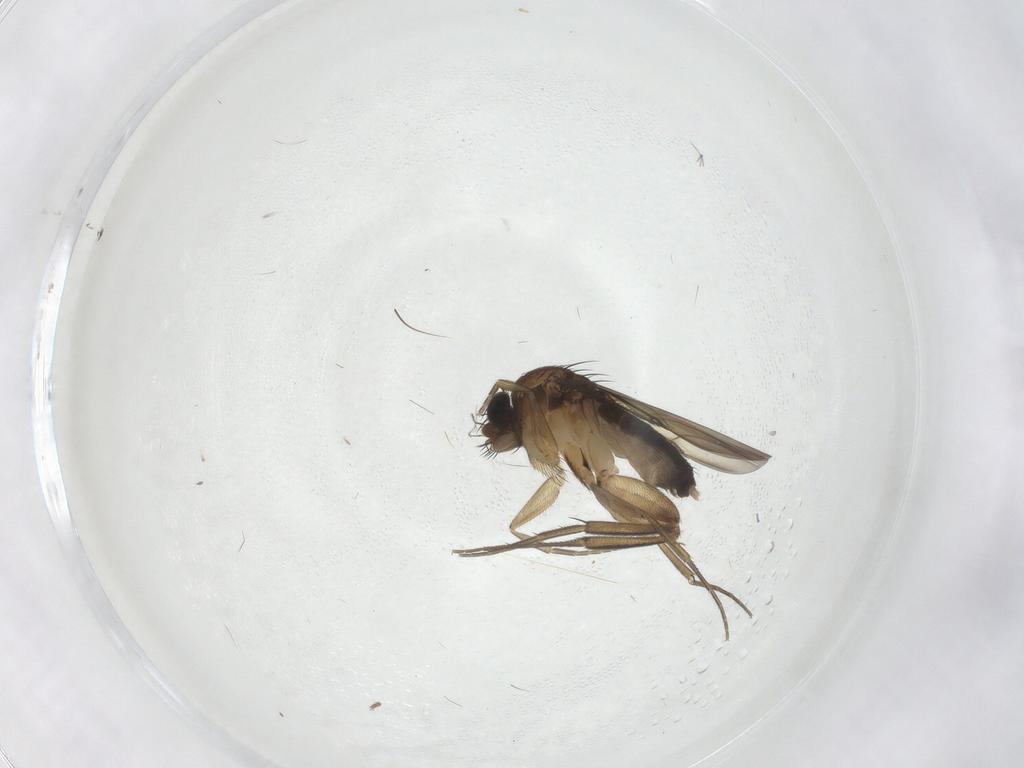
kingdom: Animalia
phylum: Arthropoda
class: Insecta
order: Diptera
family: Phoridae
